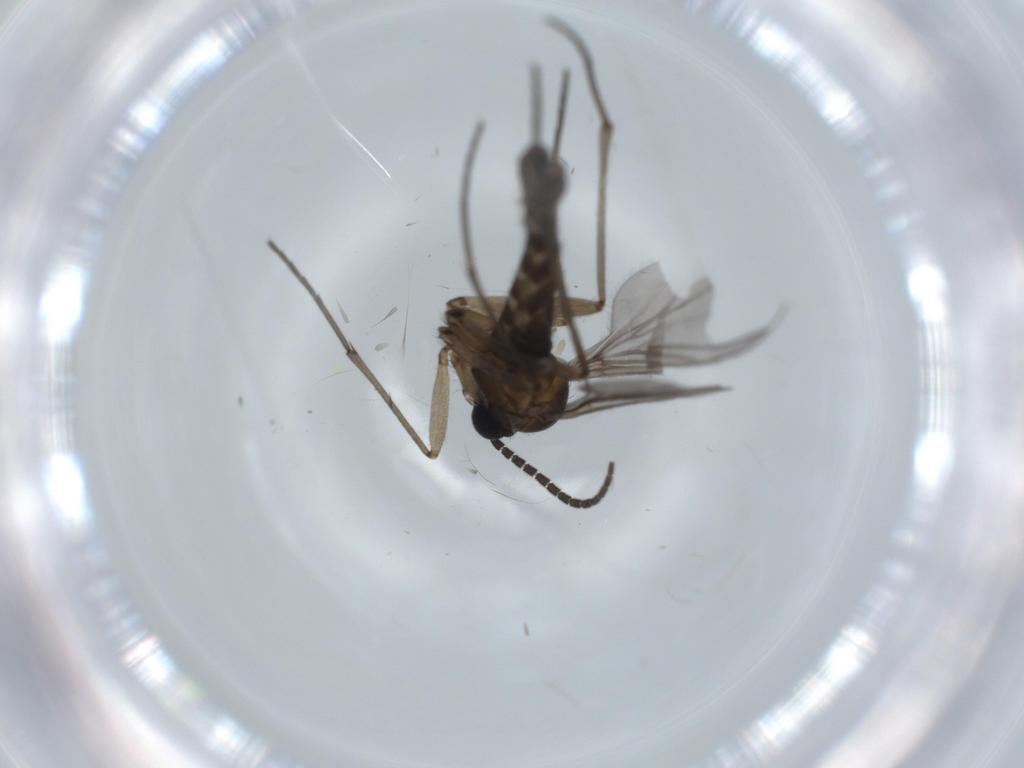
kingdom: Animalia
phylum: Arthropoda
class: Insecta
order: Diptera
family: Sciaridae
